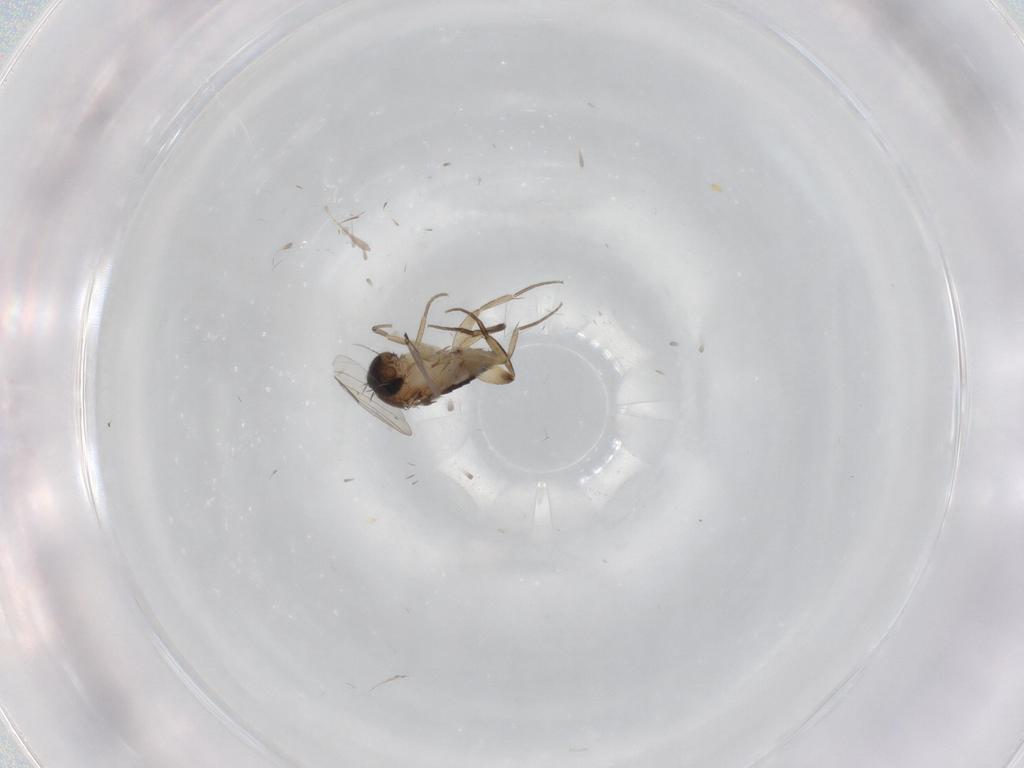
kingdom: Animalia
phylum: Arthropoda
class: Insecta
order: Diptera
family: Phoridae
